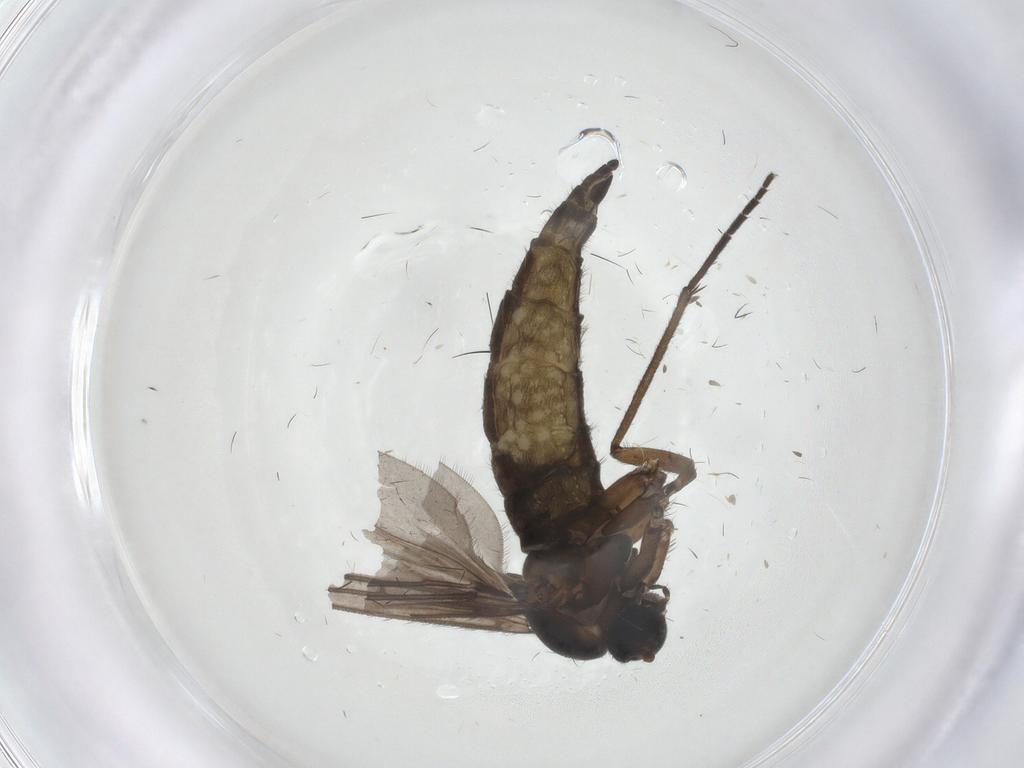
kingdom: Animalia
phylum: Arthropoda
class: Insecta
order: Diptera
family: Sciaridae
